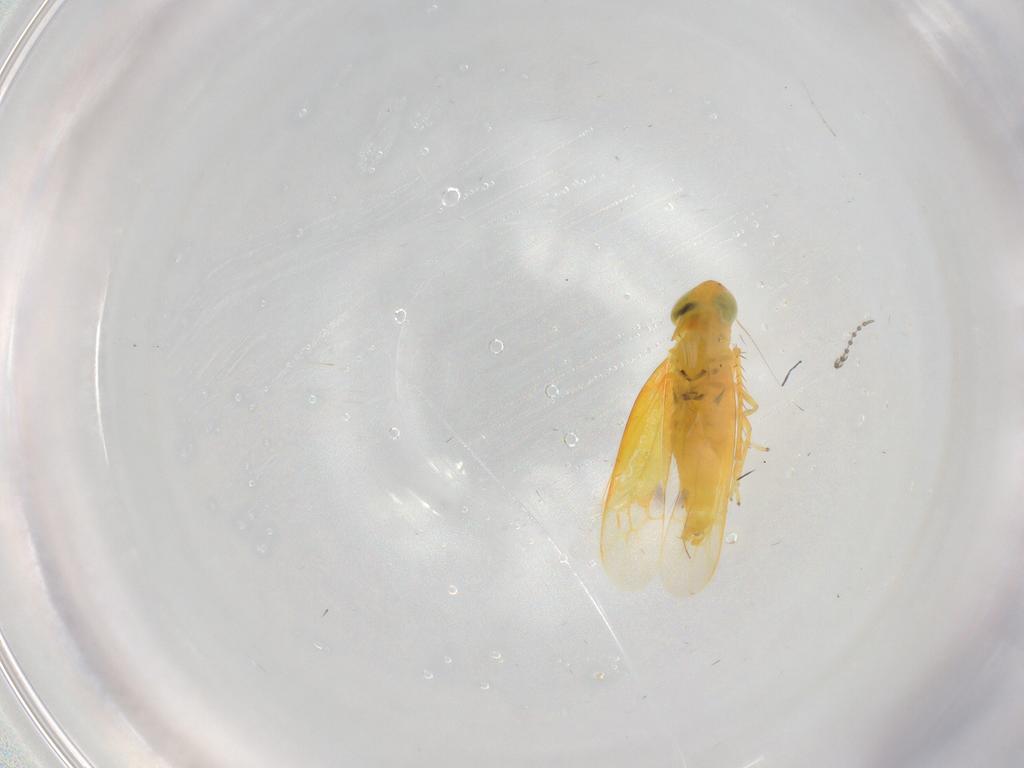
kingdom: Animalia
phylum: Arthropoda
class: Insecta
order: Hemiptera
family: Cicadellidae
